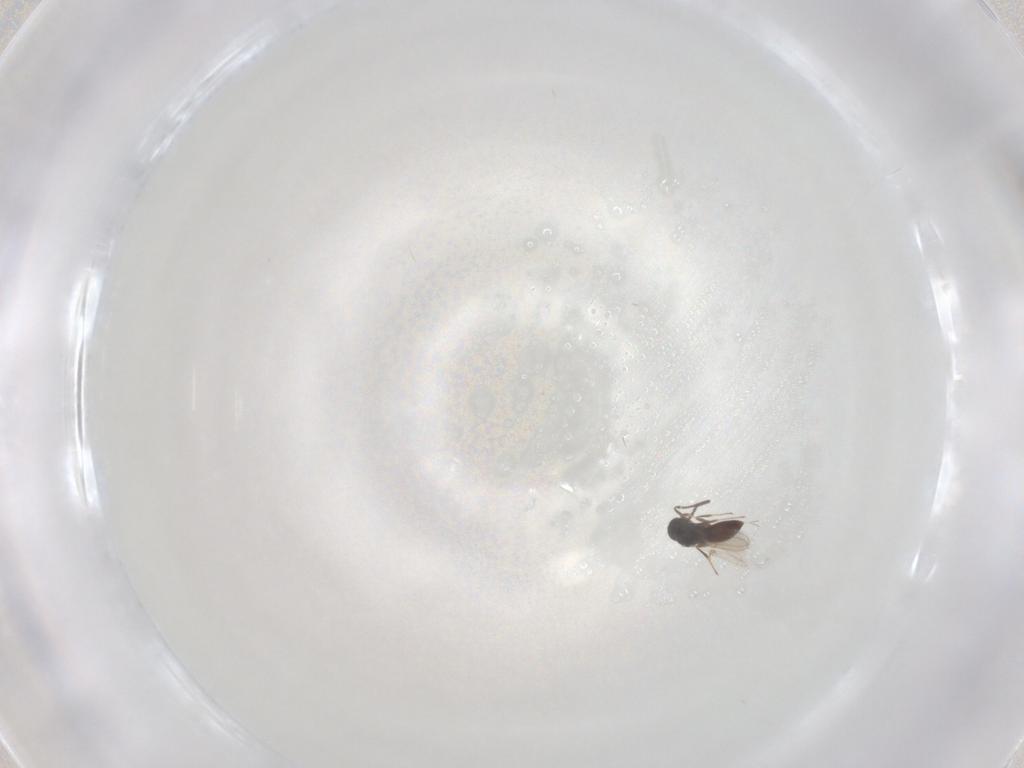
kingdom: Animalia
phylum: Arthropoda
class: Insecta
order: Hymenoptera
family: Scelionidae
